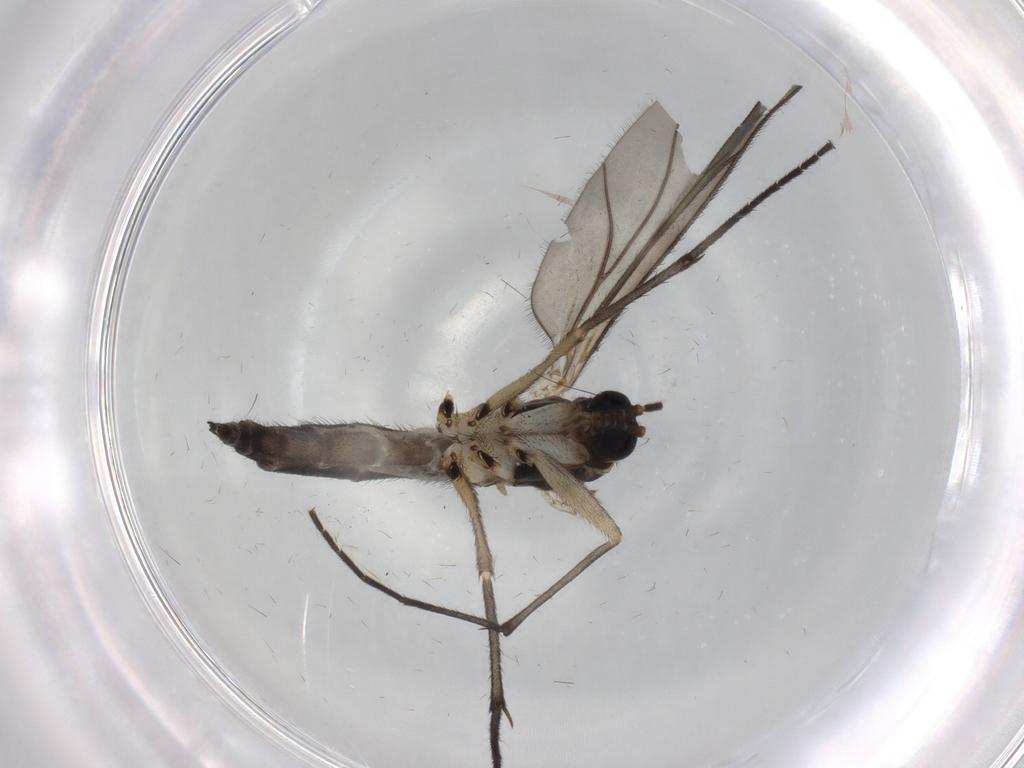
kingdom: Animalia
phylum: Arthropoda
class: Insecta
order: Diptera
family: Sciaridae
